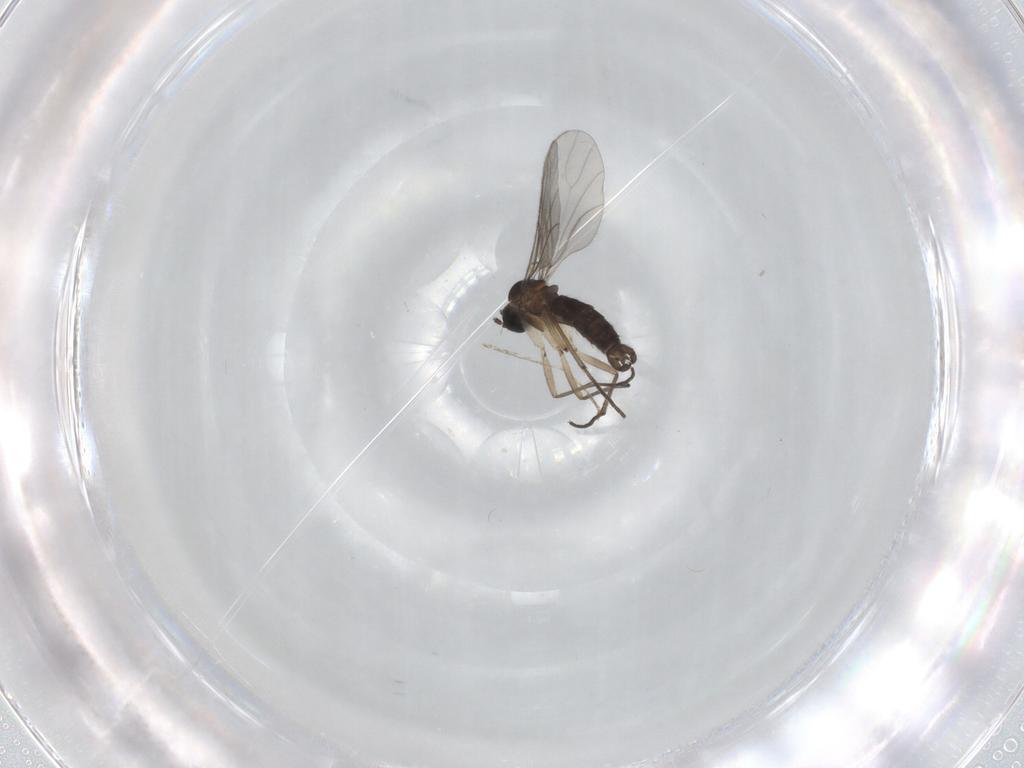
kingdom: Animalia
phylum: Arthropoda
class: Insecta
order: Diptera
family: Sciaridae
